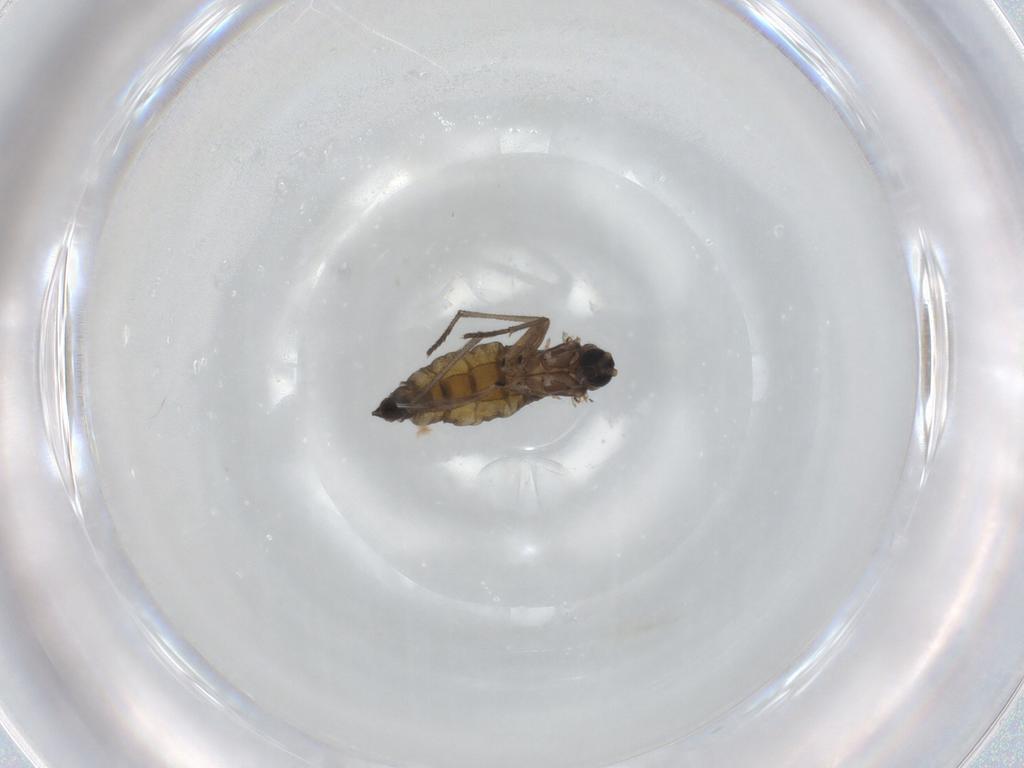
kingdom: Animalia
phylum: Arthropoda
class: Insecta
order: Diptera
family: Sciaridae
